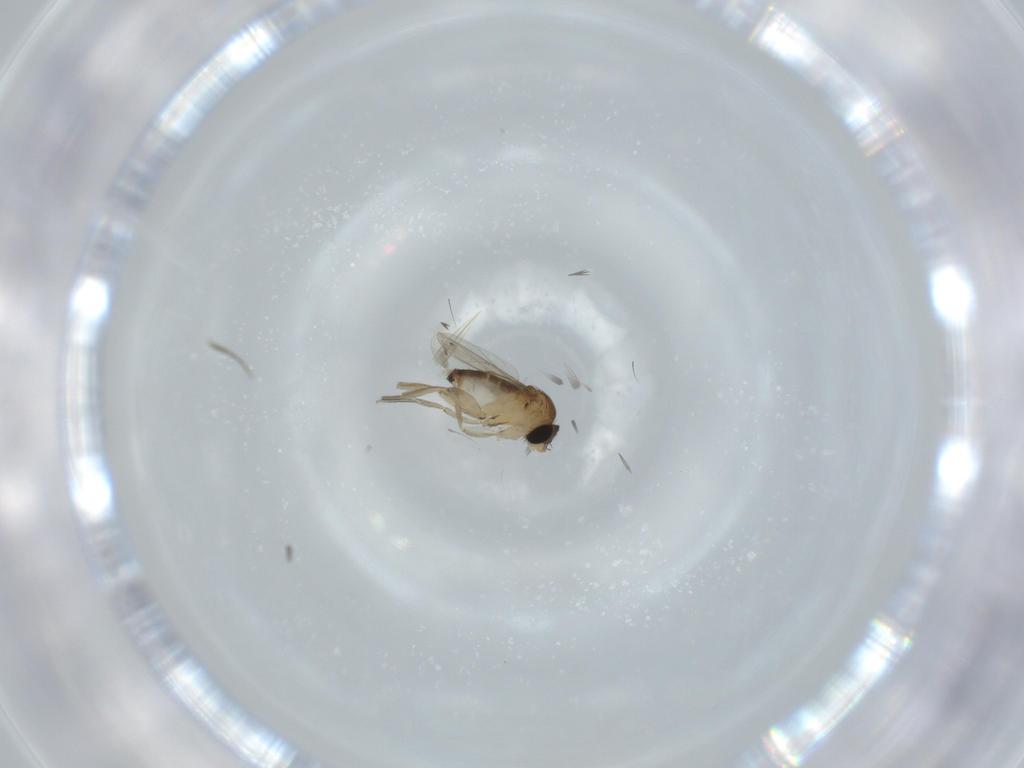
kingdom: Animalia
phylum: Arthropoda
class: Insecta
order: Diptera
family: Phoridae
